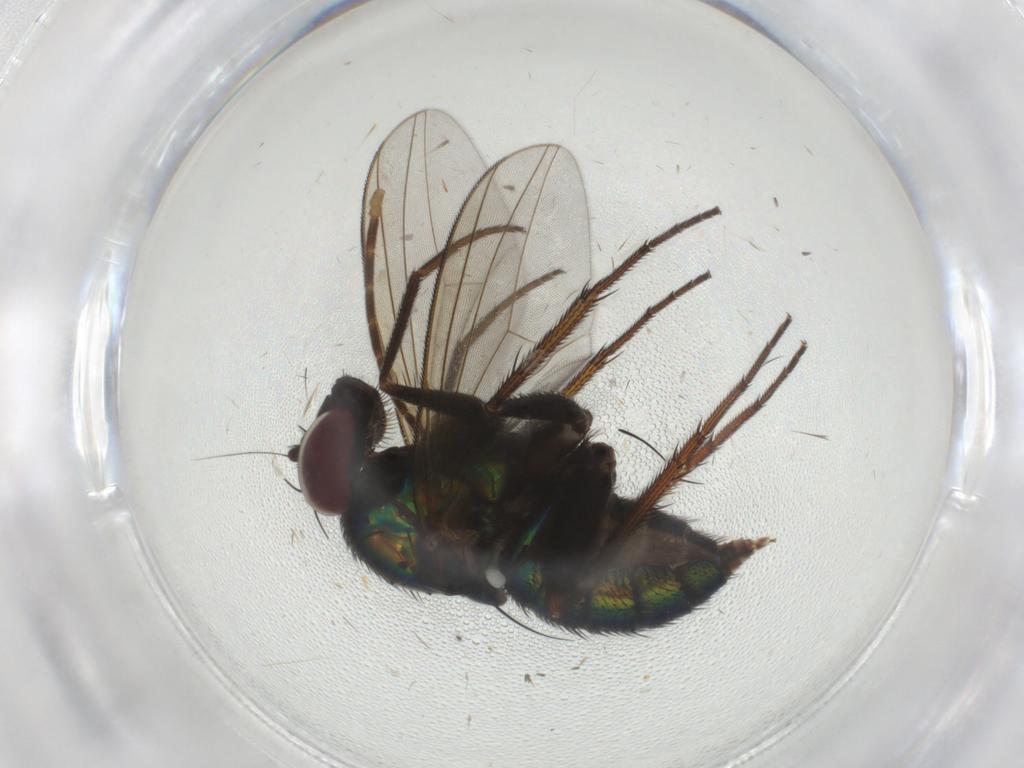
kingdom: Animalia
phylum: Arthropoda
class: Insecta
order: Diptera
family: Dolichopodidae
